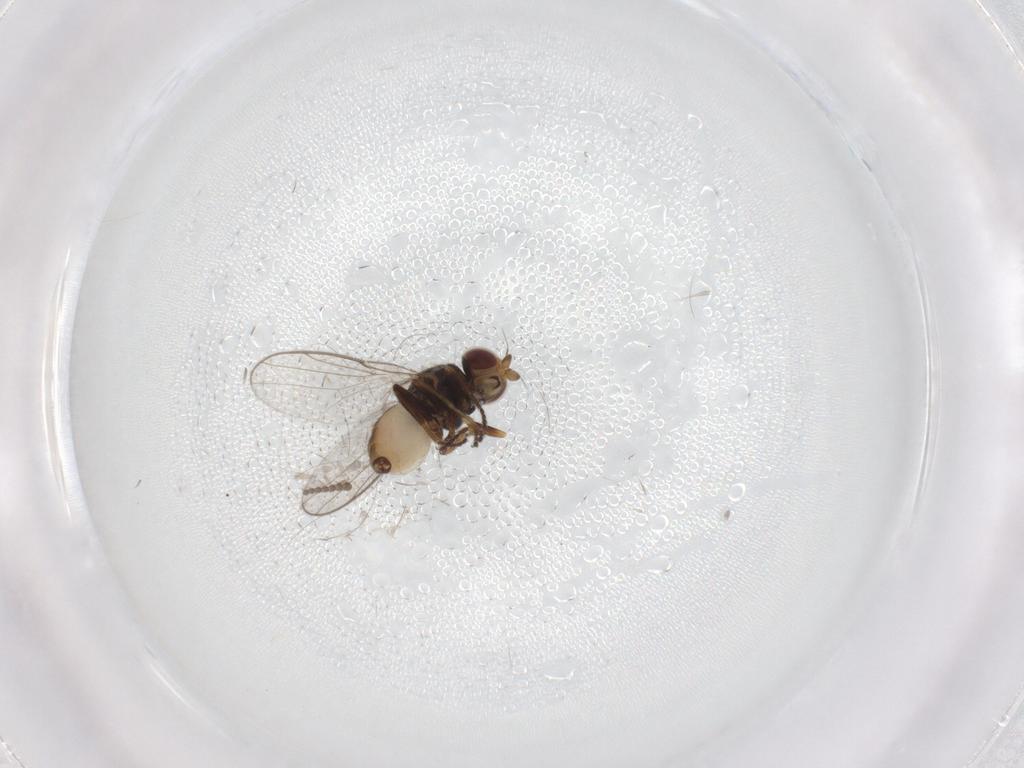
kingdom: Animalia
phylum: Arthropoda
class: Insecta
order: Diptera
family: Chloropidae
